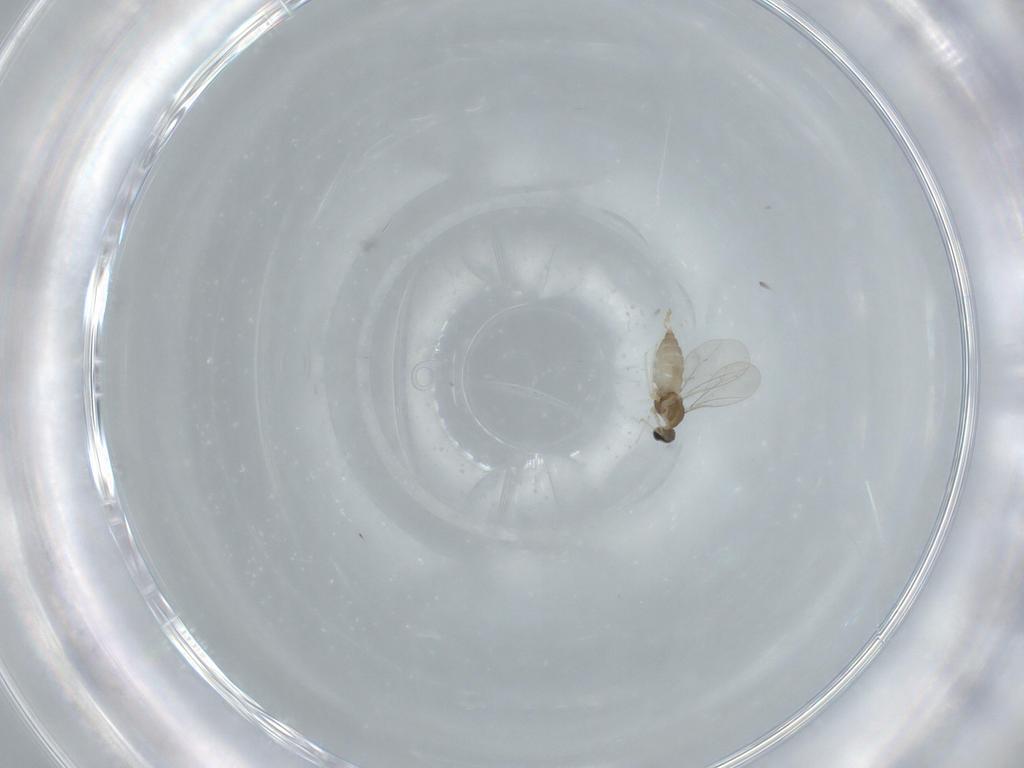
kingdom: Animalia
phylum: Arthropoda
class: Insecta
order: Diptera
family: Cecidomyiidae
